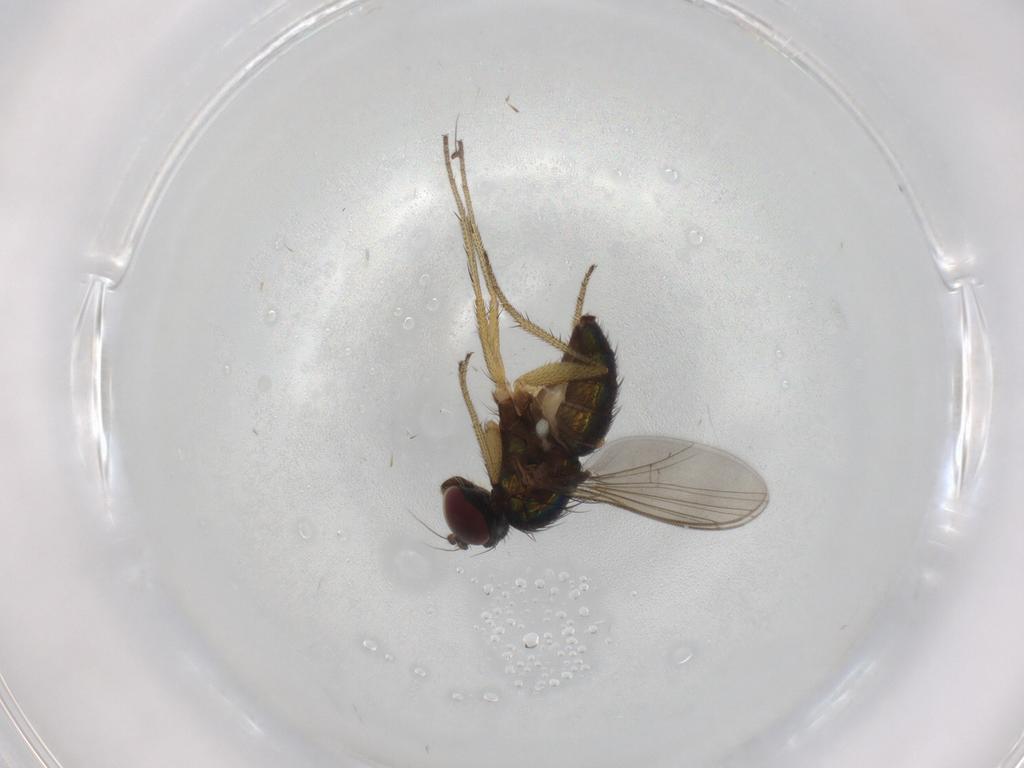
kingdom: Animalia
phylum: Arthropoda
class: Insecta
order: Diptera
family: Dolichopodidae
